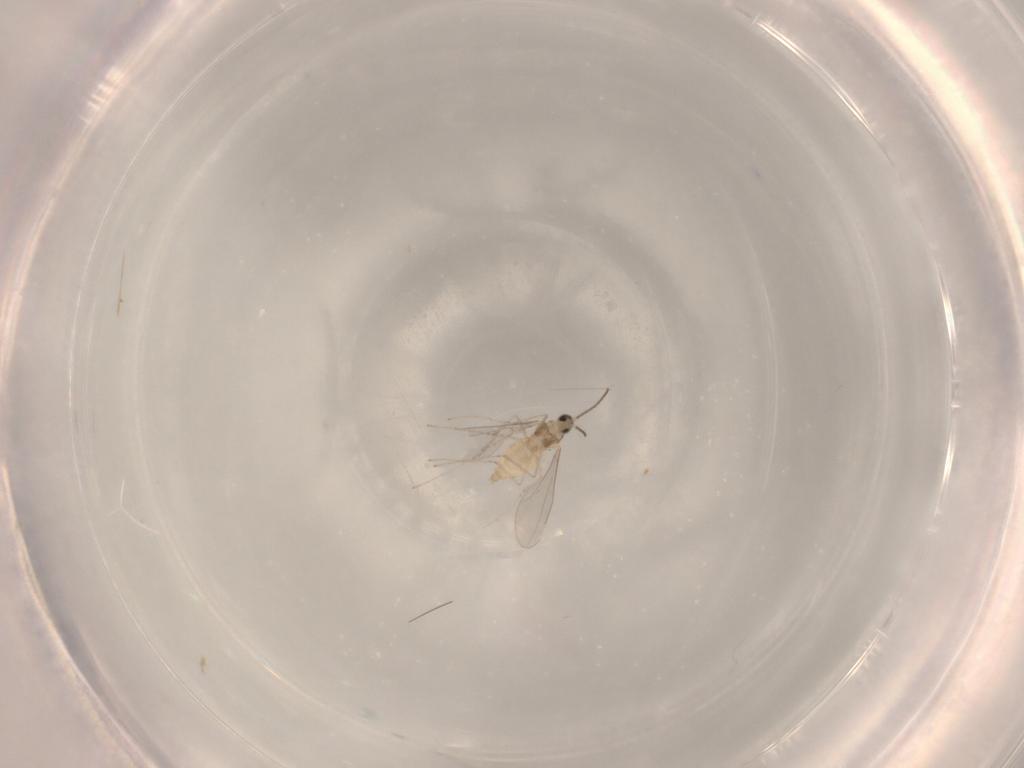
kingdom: Animalia
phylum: Arthropoda
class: Insecta
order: Diptera
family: Cecidomyiidae
